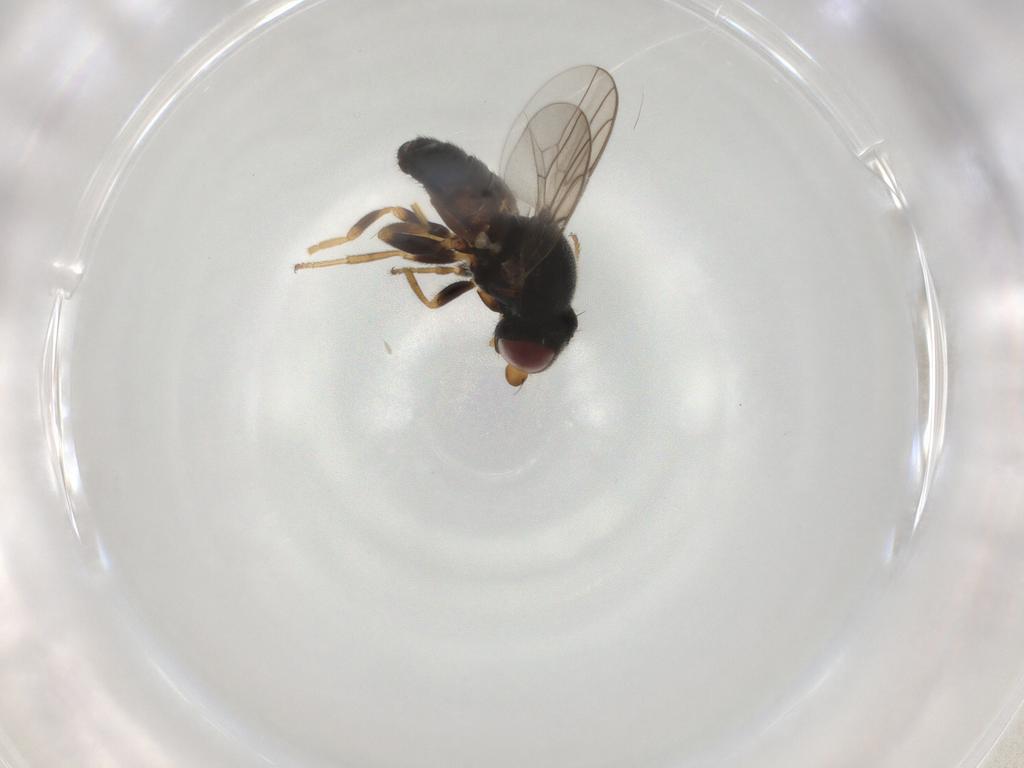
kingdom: Animalia
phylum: Arthropoda
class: Insecta
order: Diptera
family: Chloropidae
